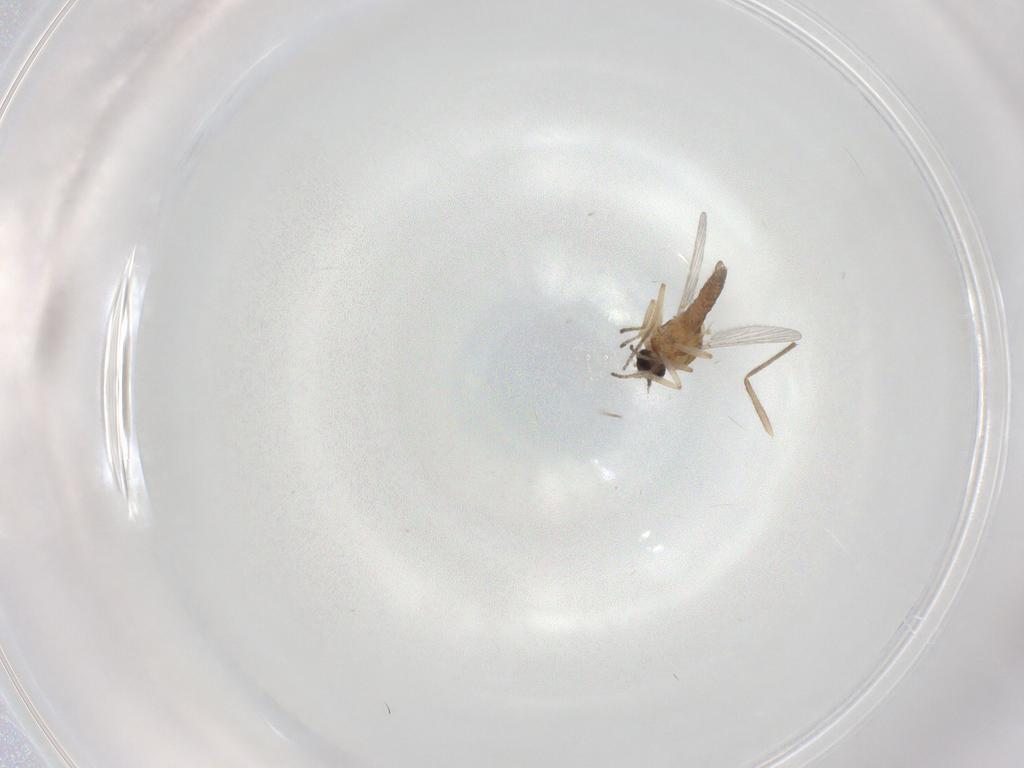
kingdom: Animalia
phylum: Arthropoda
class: Insecta
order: Diptera
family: Chironomidae
